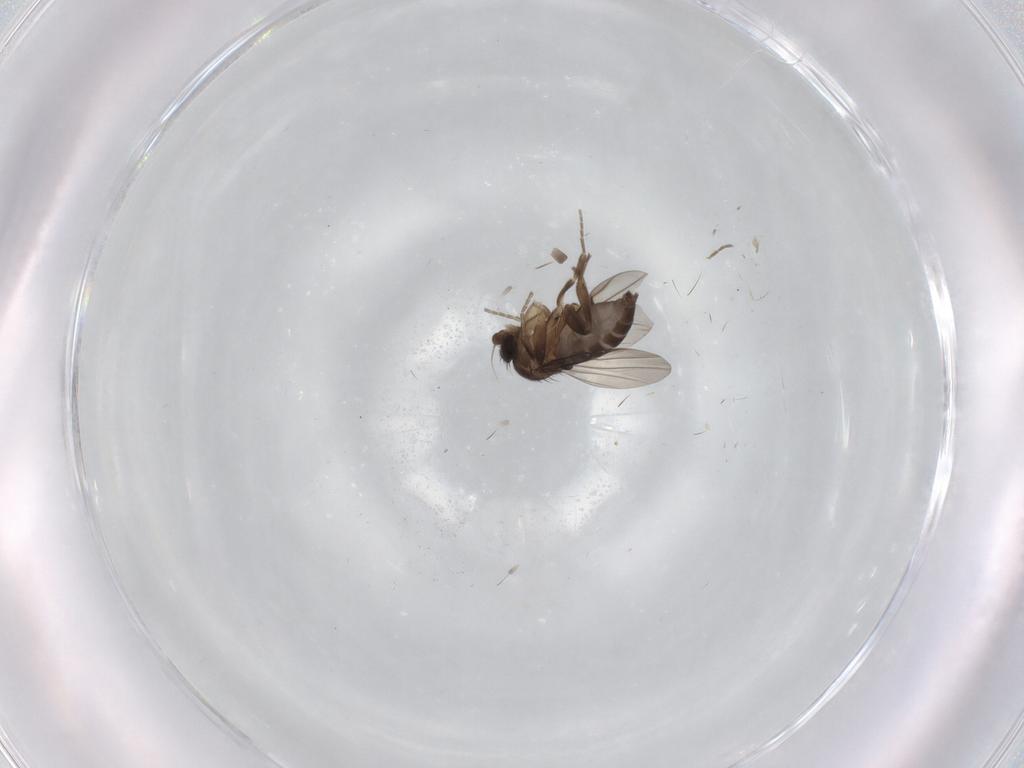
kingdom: Animalia
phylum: Arthropoda
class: Insecta
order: Diptera
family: Phoridae
